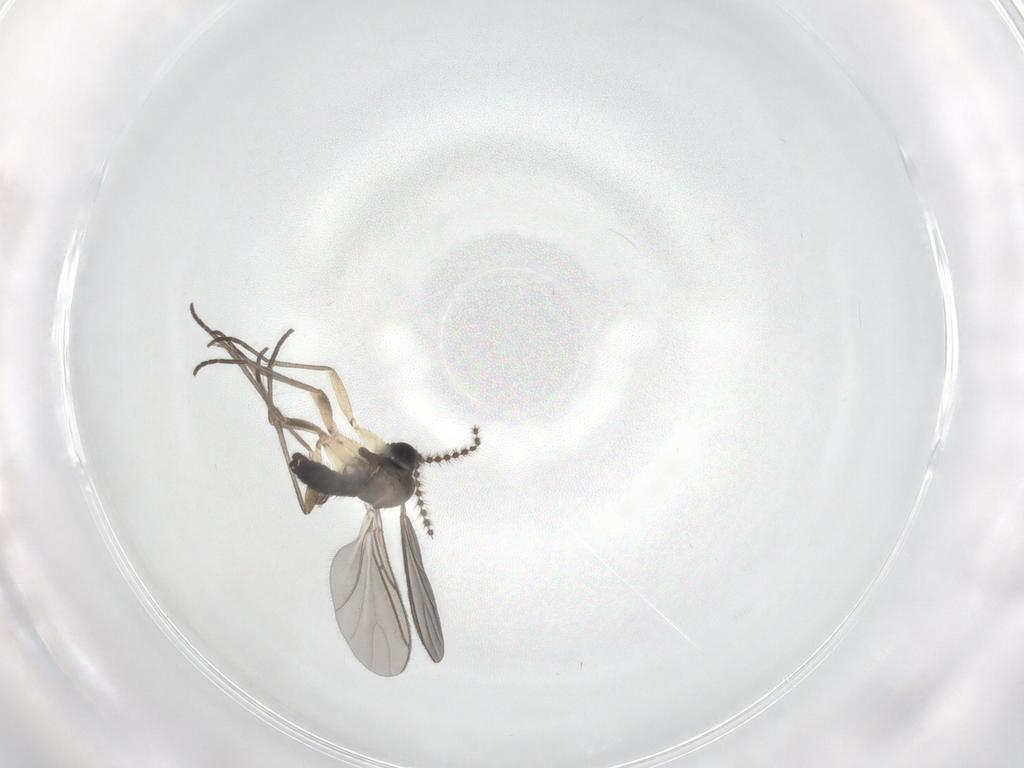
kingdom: Animalia
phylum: Arthropoda
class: Insecta
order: Diptera
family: Sciaridae
